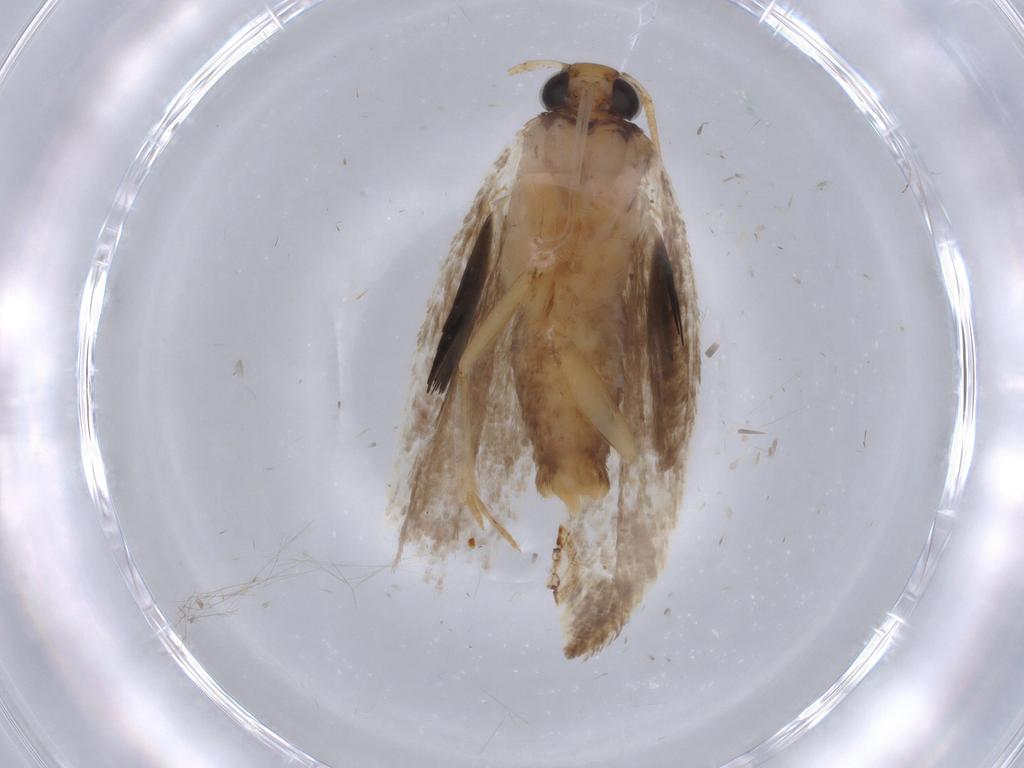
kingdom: Animalia
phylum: Arthropoda
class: Insecta
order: Lepidoptera
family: Gelechiidae
